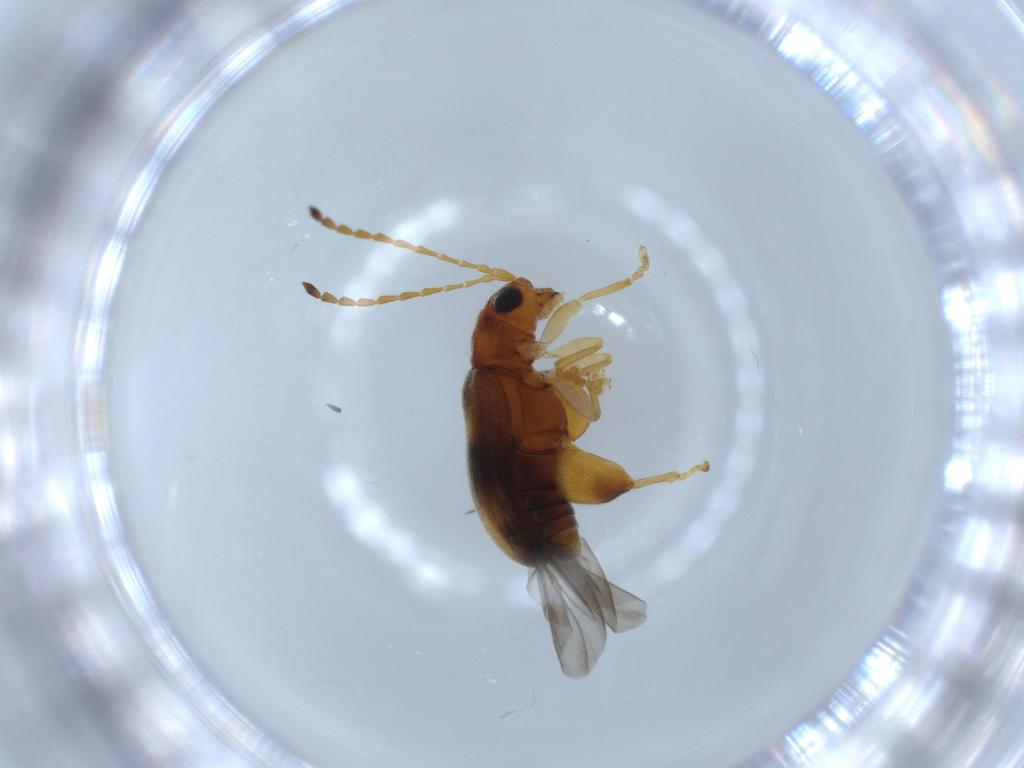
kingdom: Animalia
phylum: Arthropoda
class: Insecta
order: Coleoptera
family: Chrysomelidae
